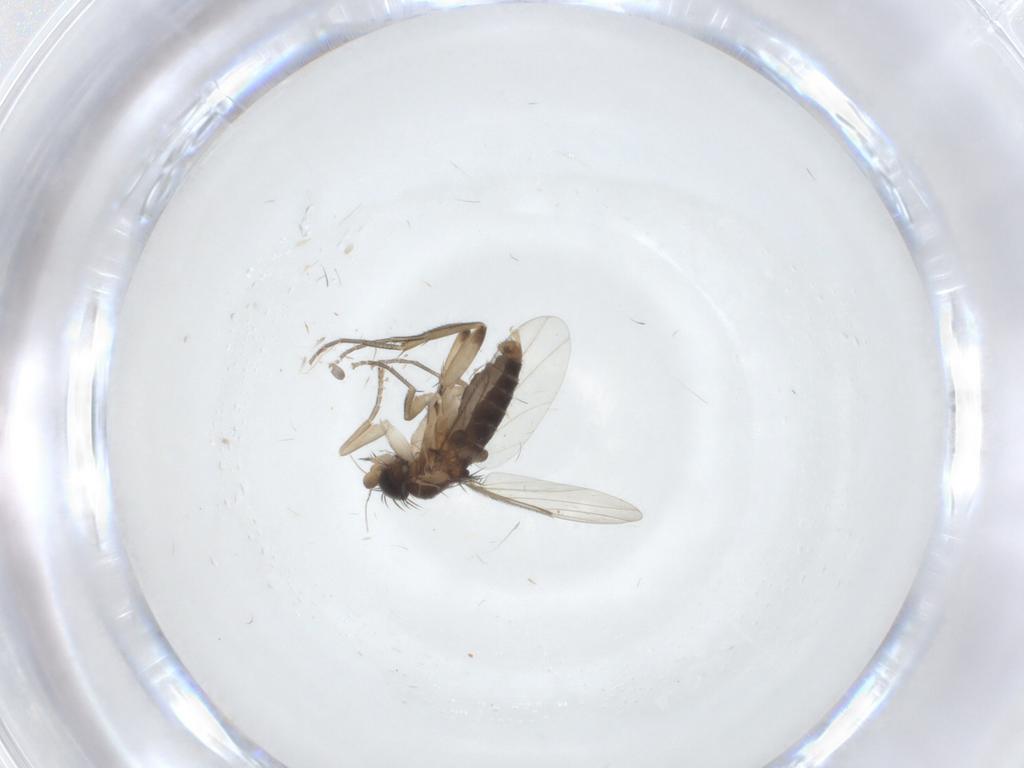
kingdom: Animalia
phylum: Arthropoda
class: Insecta
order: Diptera
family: Phoridae
